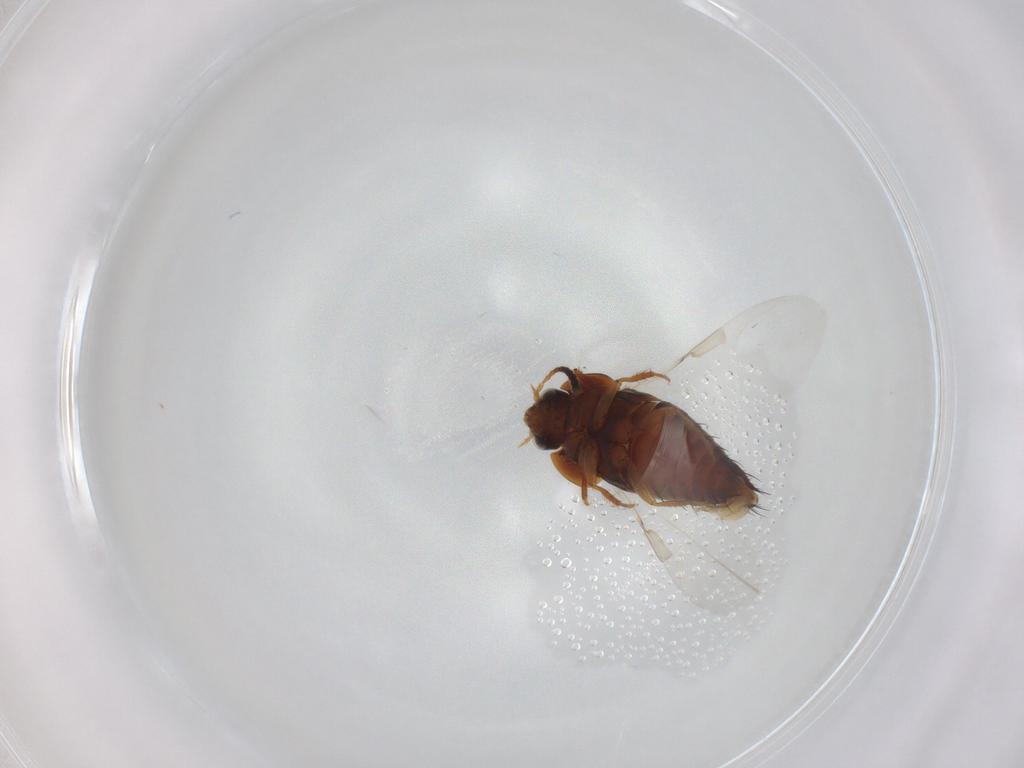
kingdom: Animalia
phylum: Arthropoda
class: Insecta
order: Coleoptera
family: Staphylinidae
